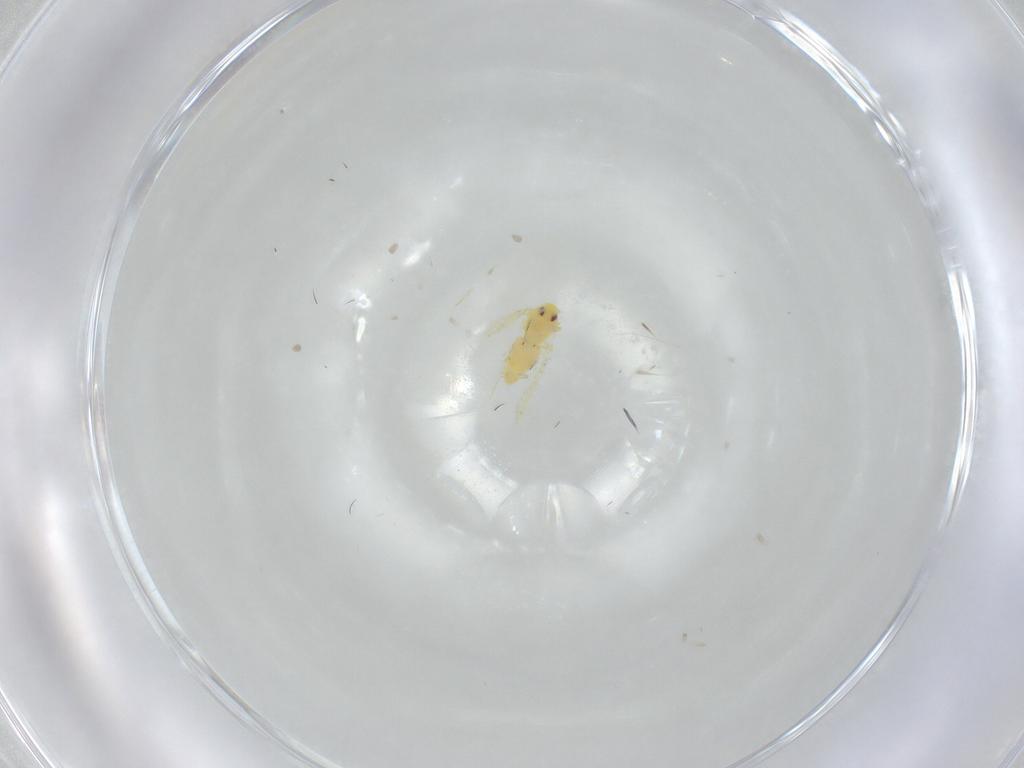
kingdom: Animalia
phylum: Arthropoda
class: Insecta
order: Hemiptera
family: Aleyrodidae
